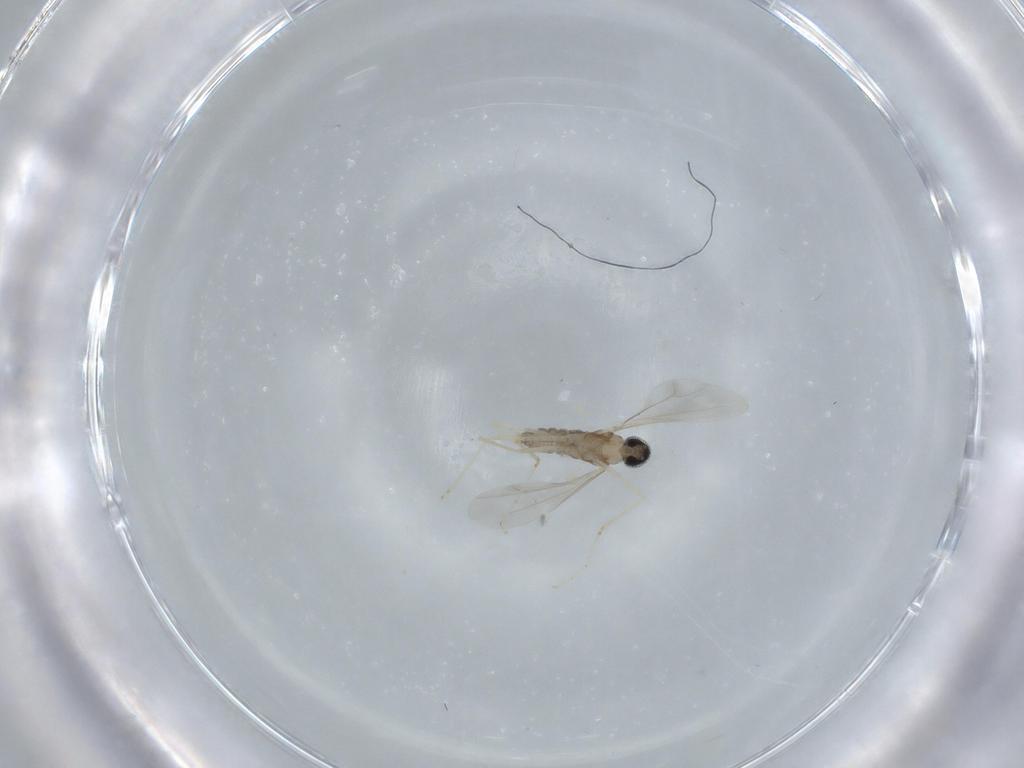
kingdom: Animalia
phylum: Arthropoda
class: Insecta
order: Diptera
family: Cecidomyiidae
